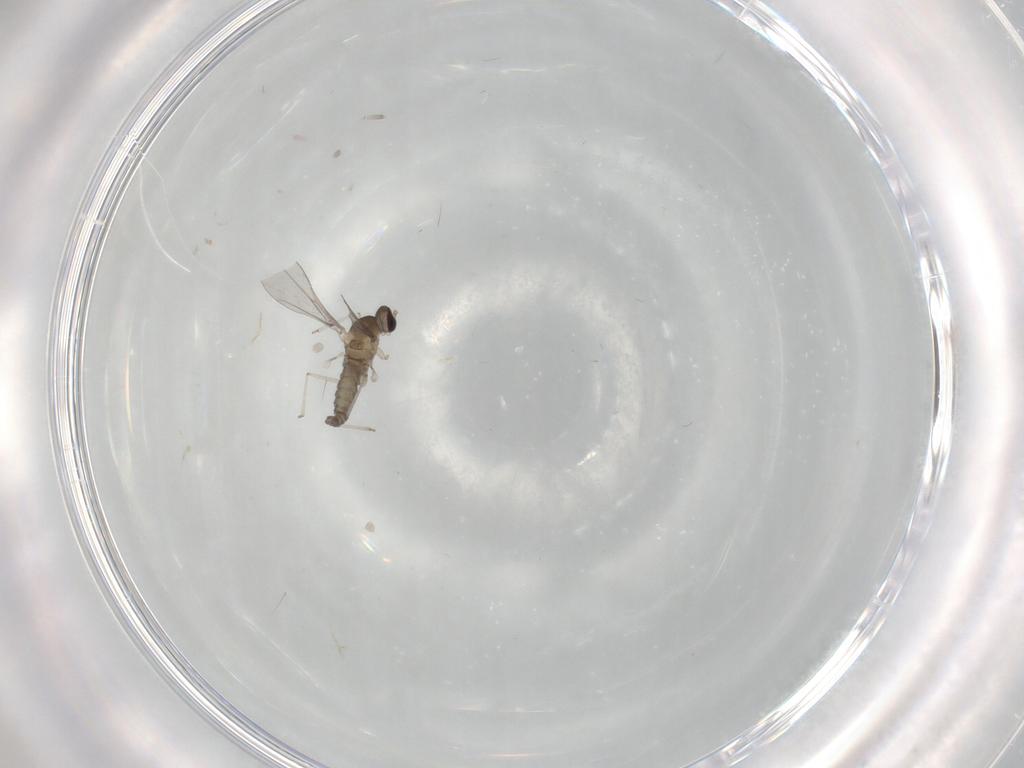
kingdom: Animalia
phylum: Arthropoda
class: Insecta
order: Diptera
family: Cecidomyiidae
